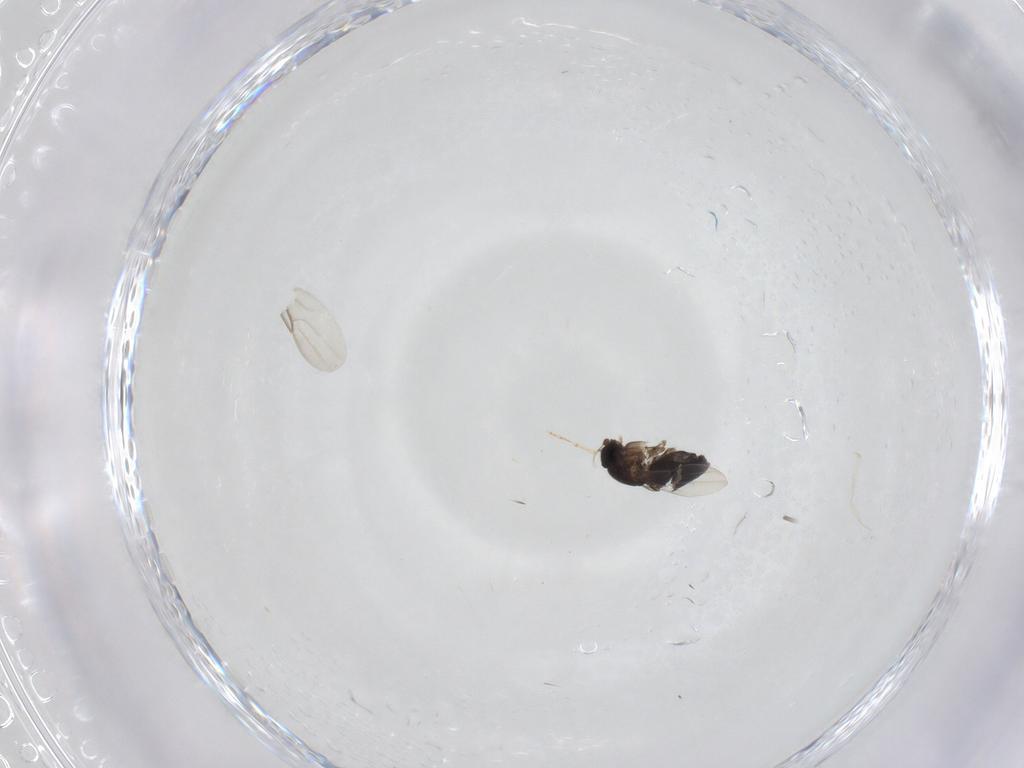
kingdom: Animalia
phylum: Arthropoda
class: Insecta
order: Diptera
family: Phoridae
